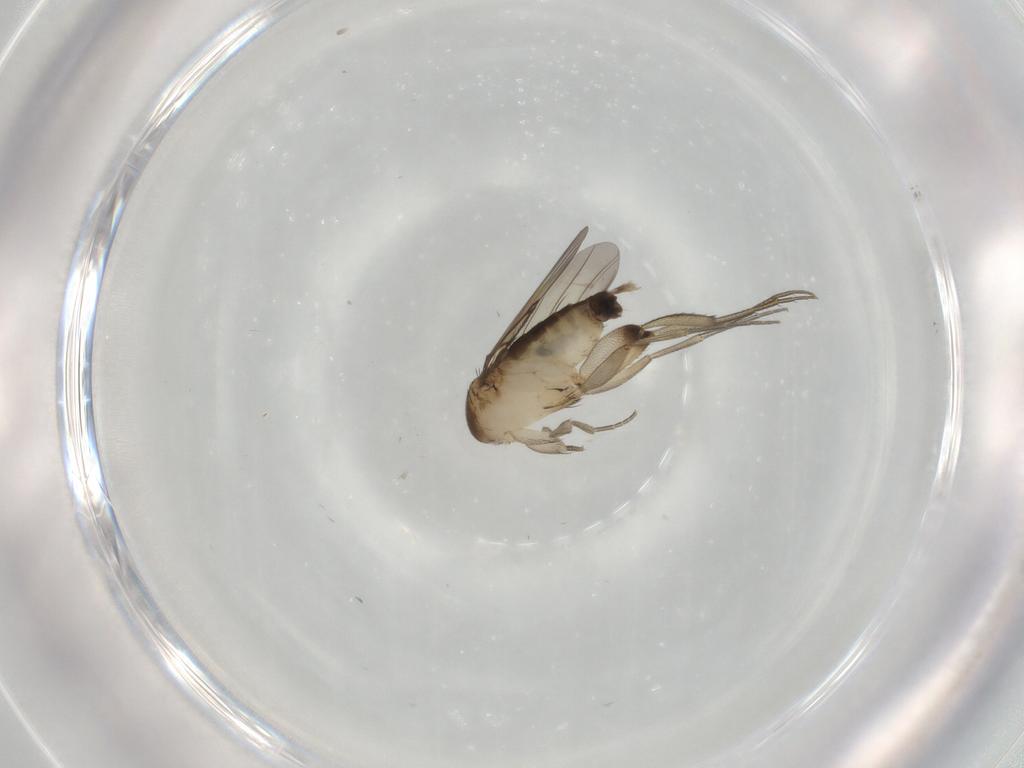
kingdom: Animalia
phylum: Arthropoda
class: Insecta
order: Diptera
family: Phoridae
